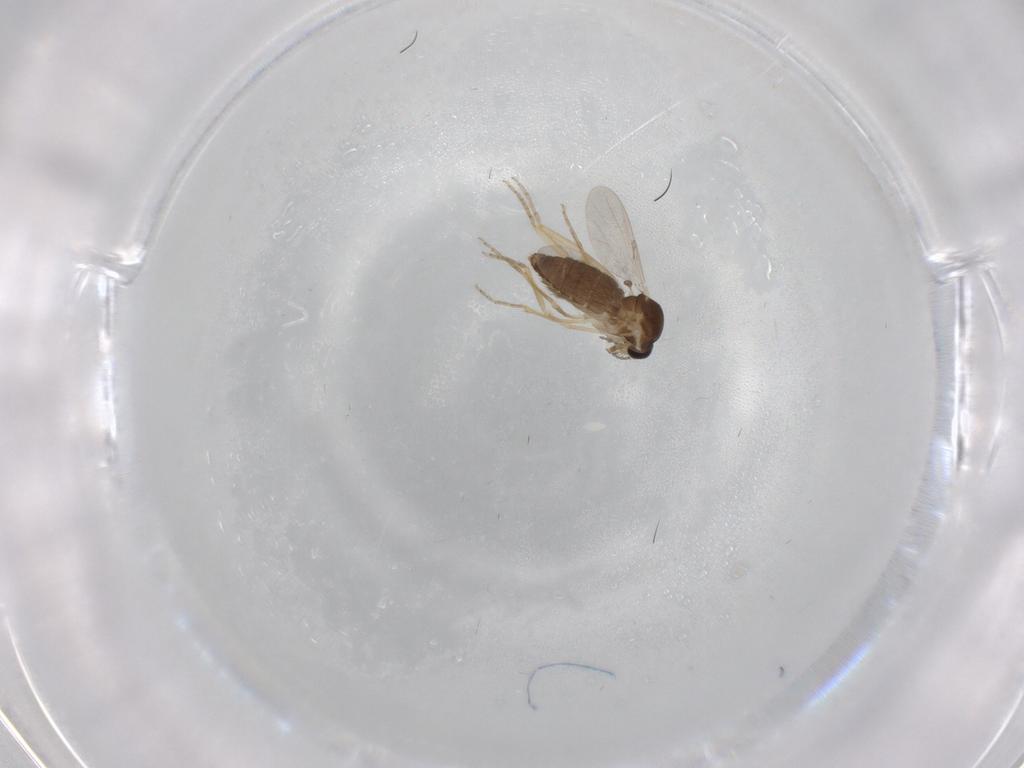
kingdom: Animalia
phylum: Arthropoda
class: Insecta
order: Diptera
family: Ceratopogonidae
